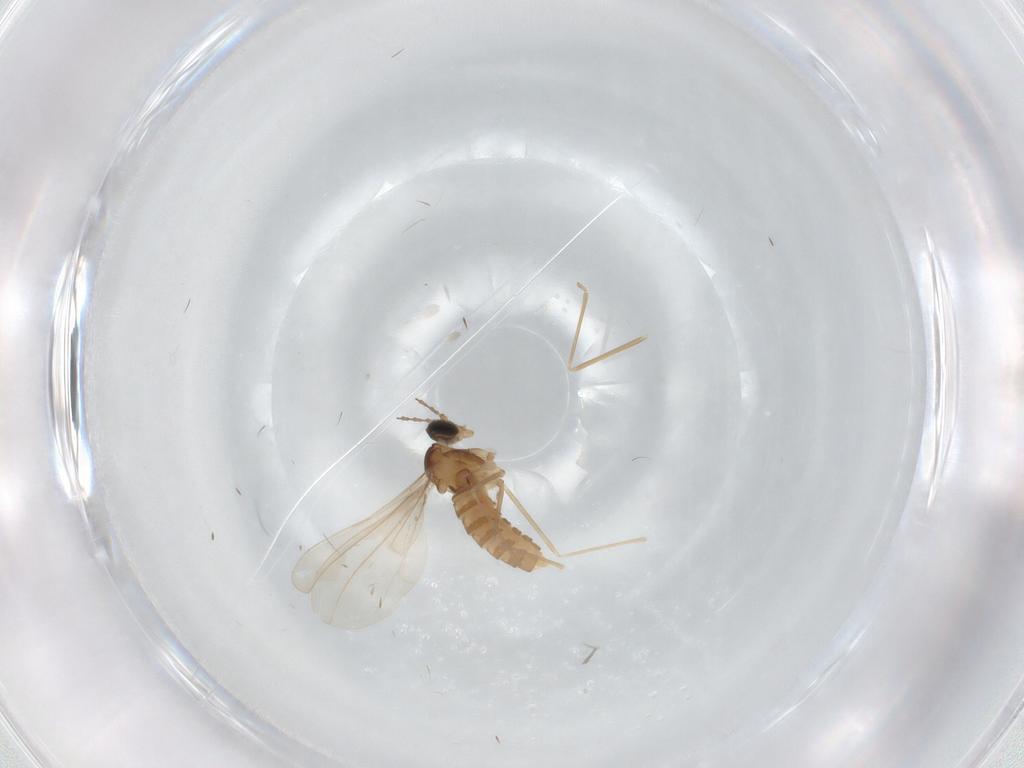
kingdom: Animalia
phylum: Arthropoda
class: Insecta
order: Diptera
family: Cecidomyiidae
